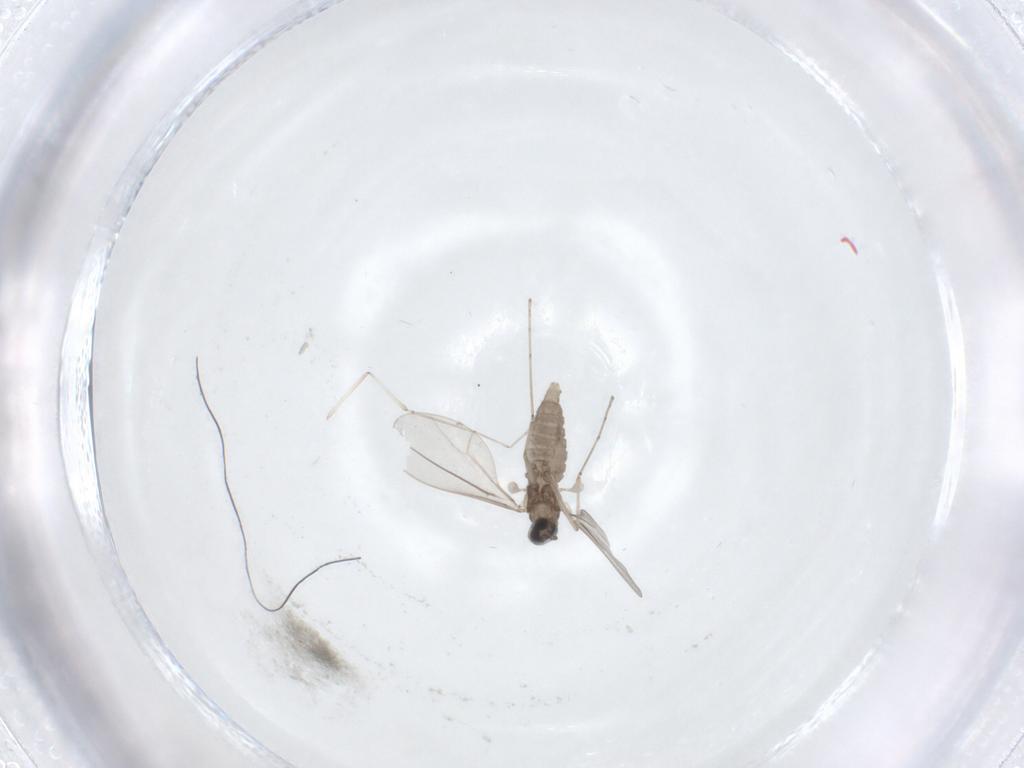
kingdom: Animalia
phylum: Arthropoda
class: Insecta
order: Diptera
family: Cecidomyiidae
